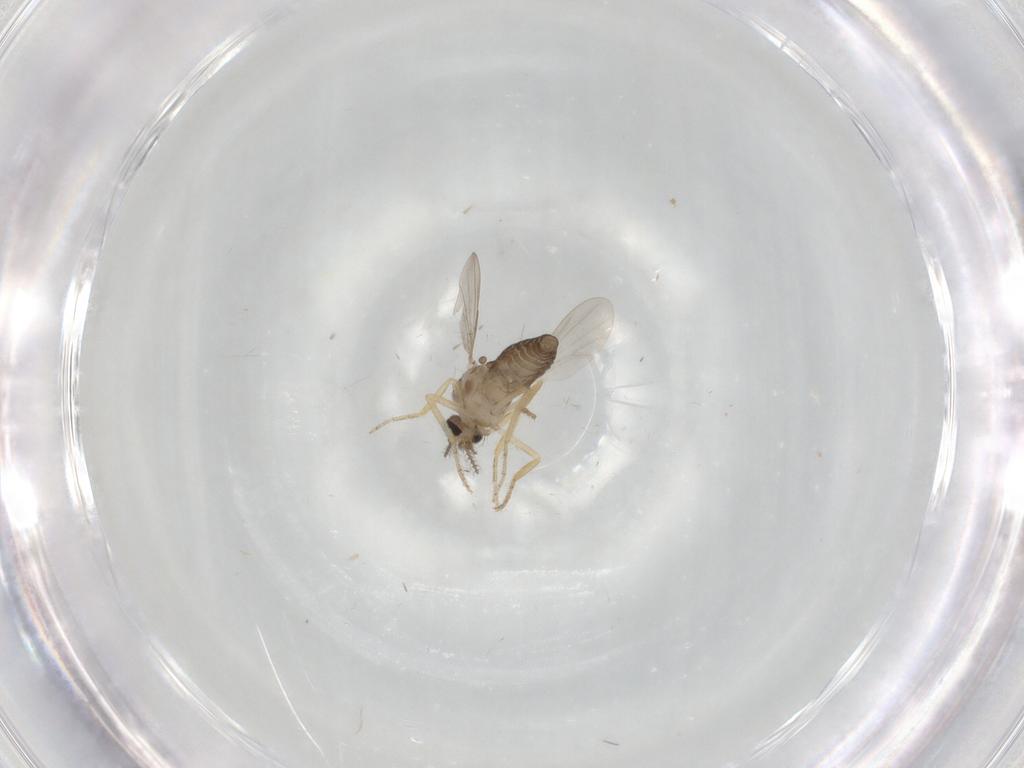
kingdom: Animalia
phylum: Arthropoda
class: Insecta
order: Diptera
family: Ceratopogonidae
